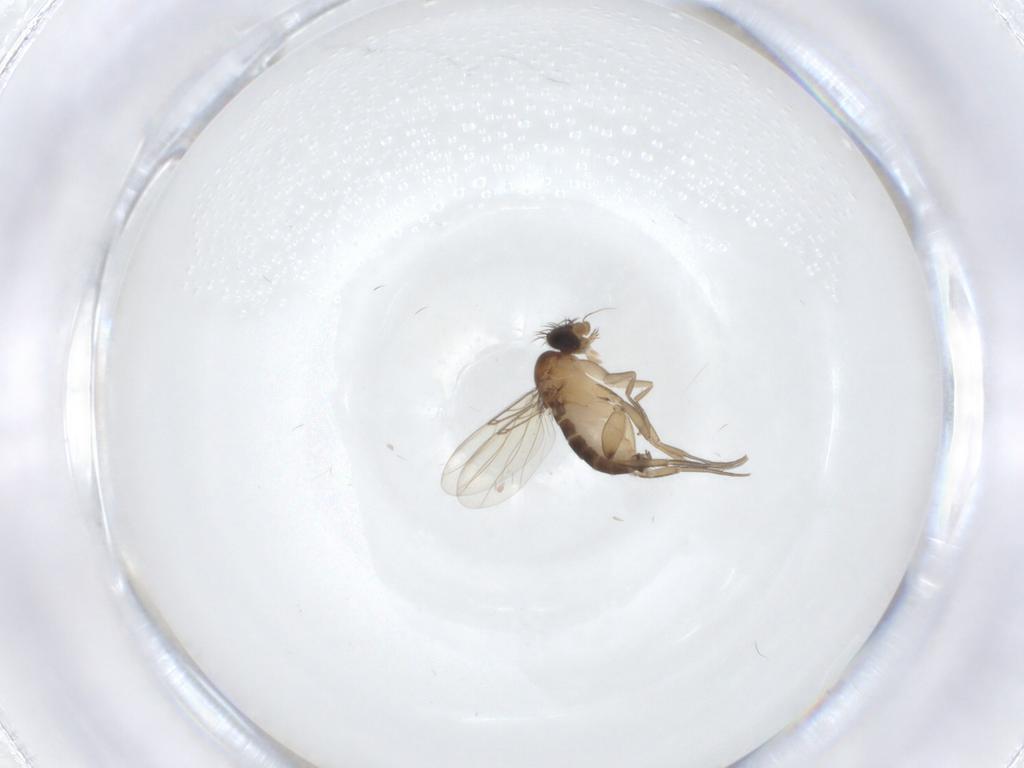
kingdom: Animalia
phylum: Arthropoda
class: Insecta
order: Diptera
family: Phoridae
